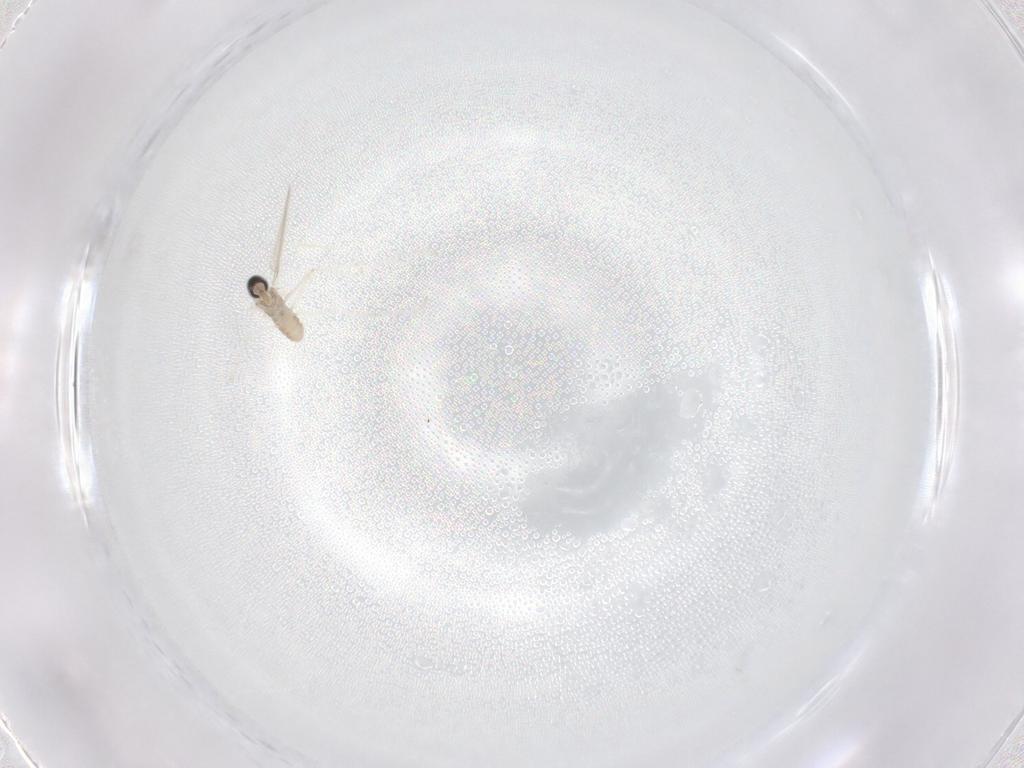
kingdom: Animalia
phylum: Arthropoda
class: Insecta
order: Diptera
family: Cecidomyiidae
